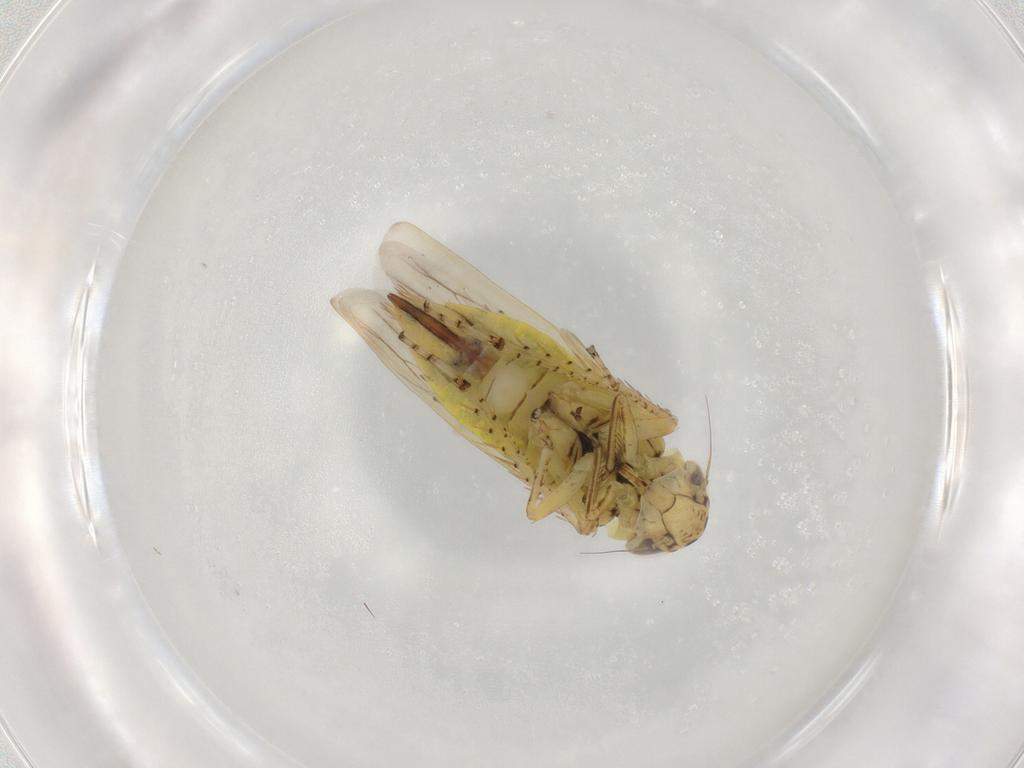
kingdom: Animalia
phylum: Arthropoda
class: Insecta
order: Hemiptera
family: Cicadellidae
